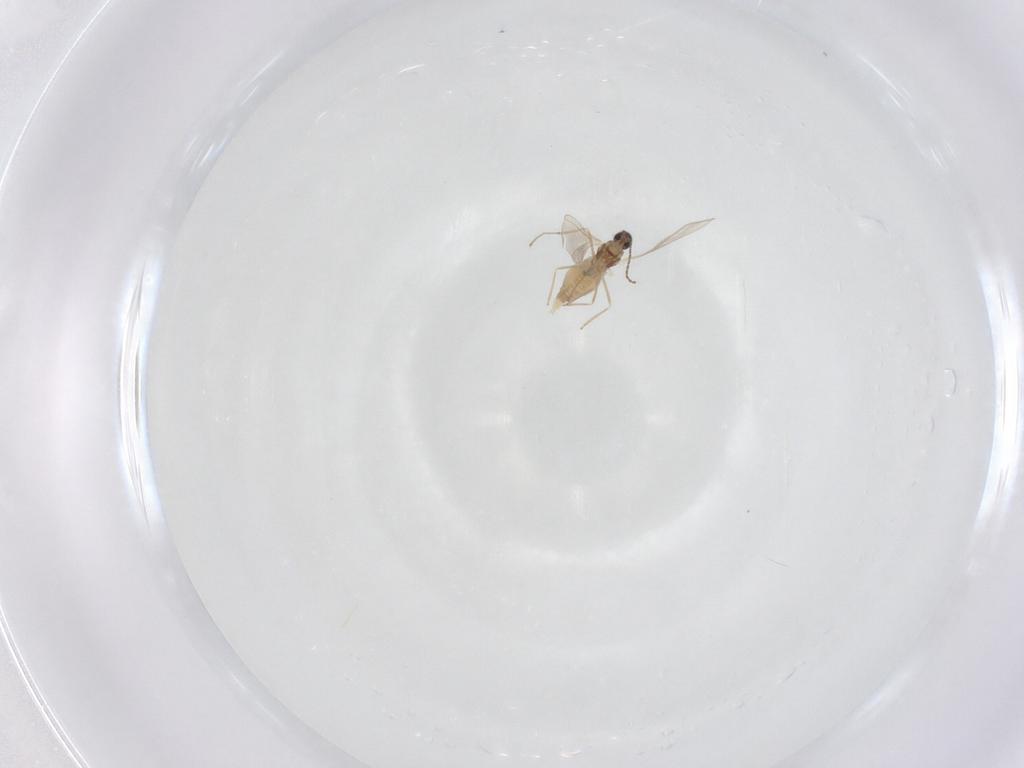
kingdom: Animalia
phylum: Arthropoda
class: Insecta
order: Diptera
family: Cecidomyiidae
